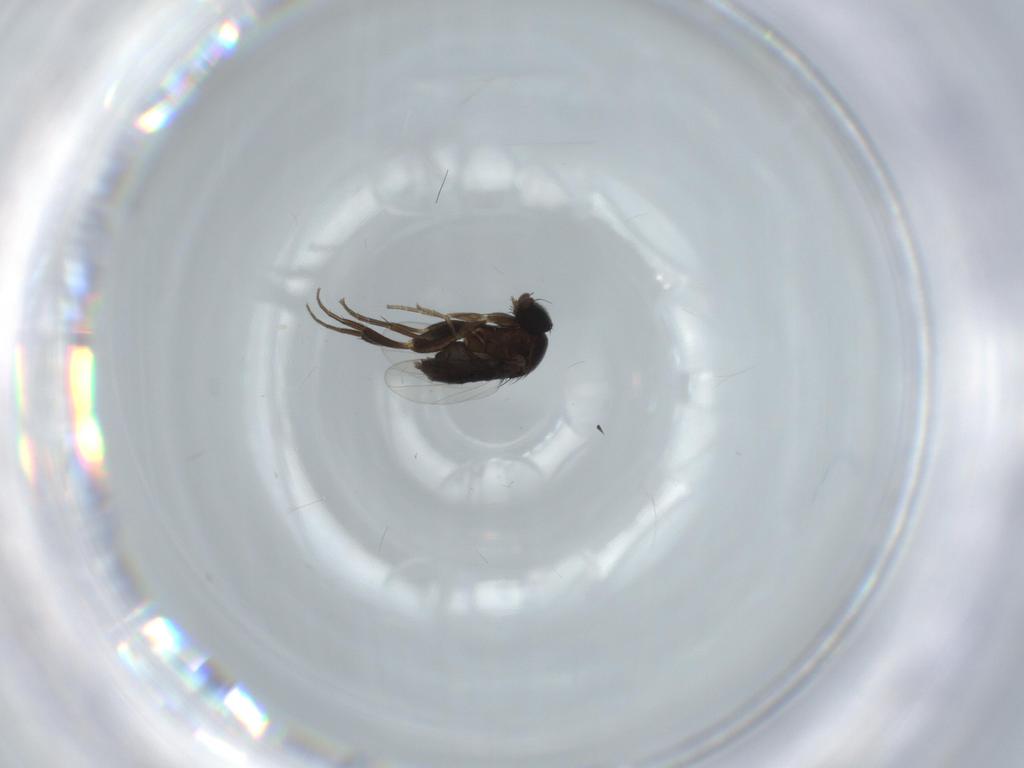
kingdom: Animalia
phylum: Arthropoda
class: Insecta
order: Diptera
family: Phoridae
